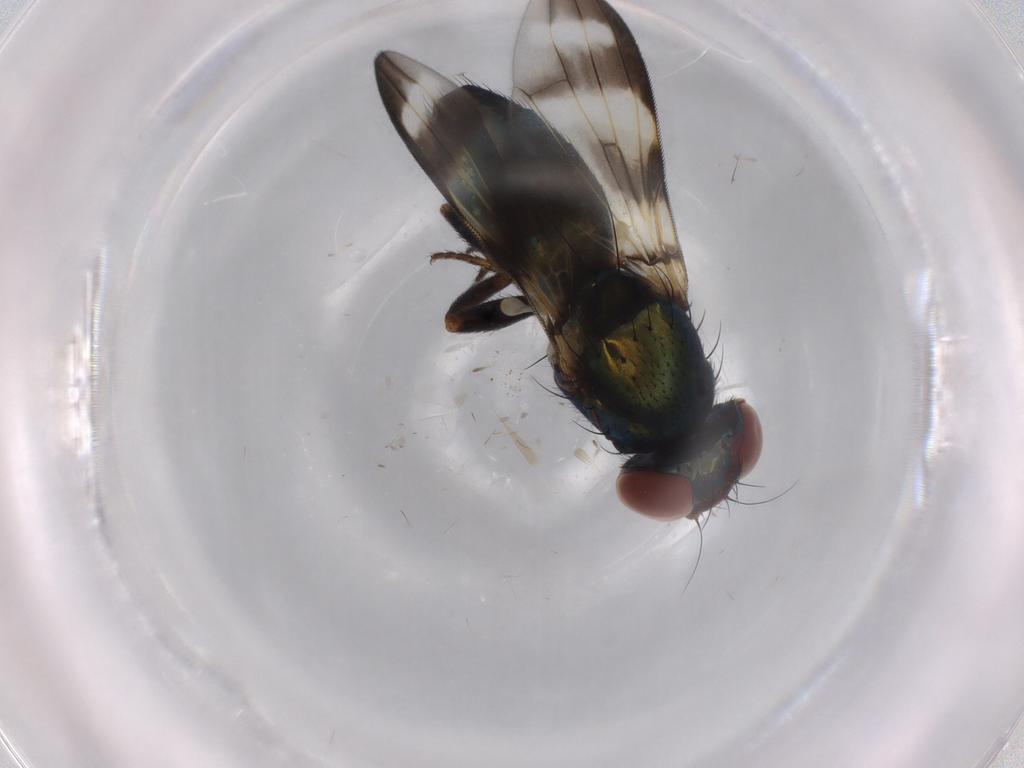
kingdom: Animalia
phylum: Arthropoda
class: Insecta
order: Diptera
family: Ulidiidae
